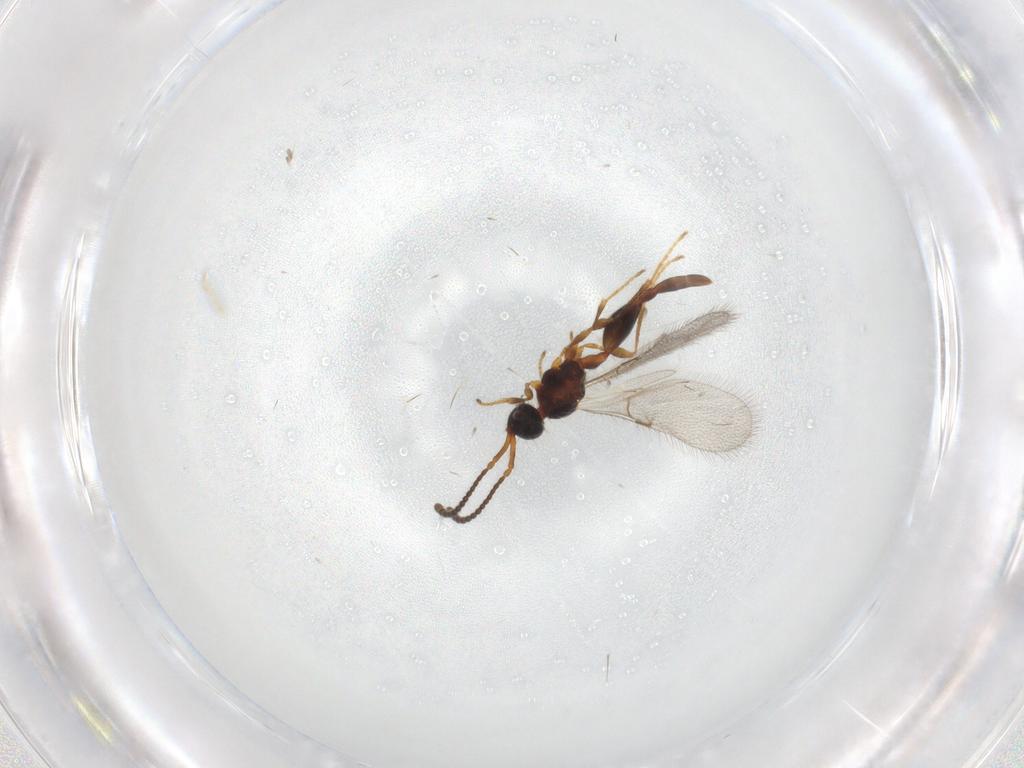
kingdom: Animalia
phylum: Arthropoda
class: Insecta
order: Hymenoptera
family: Diapriidae
